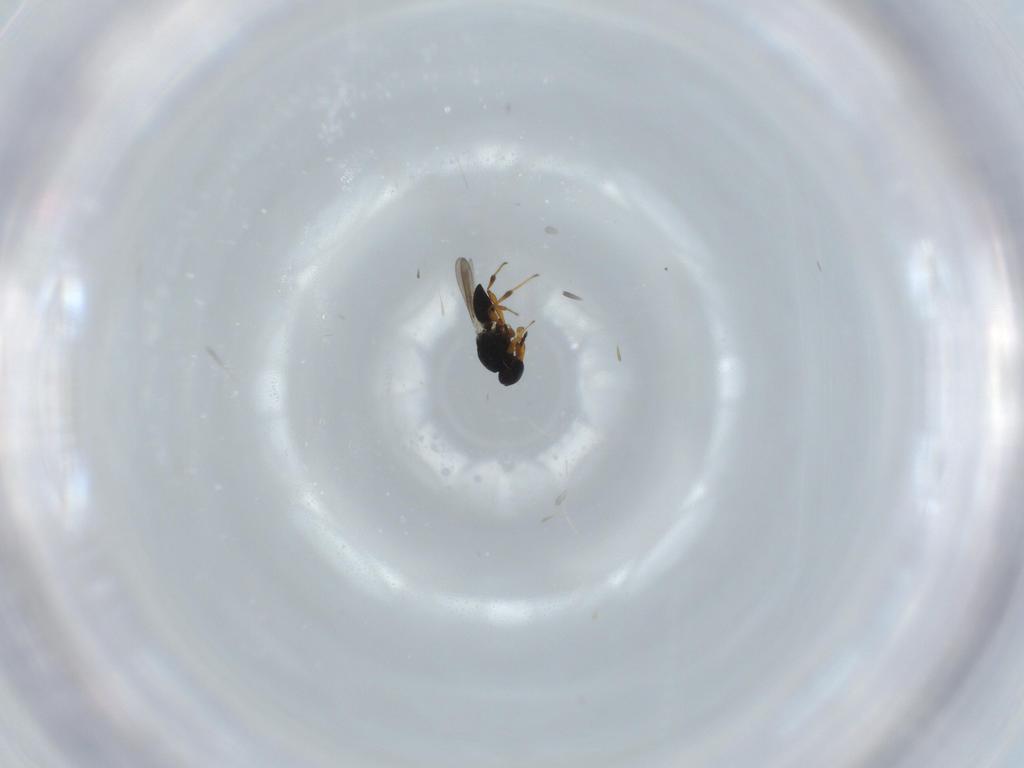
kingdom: Animalia
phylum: Arthropoda
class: Insecta
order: Hymenoptera
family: Platygastridae
